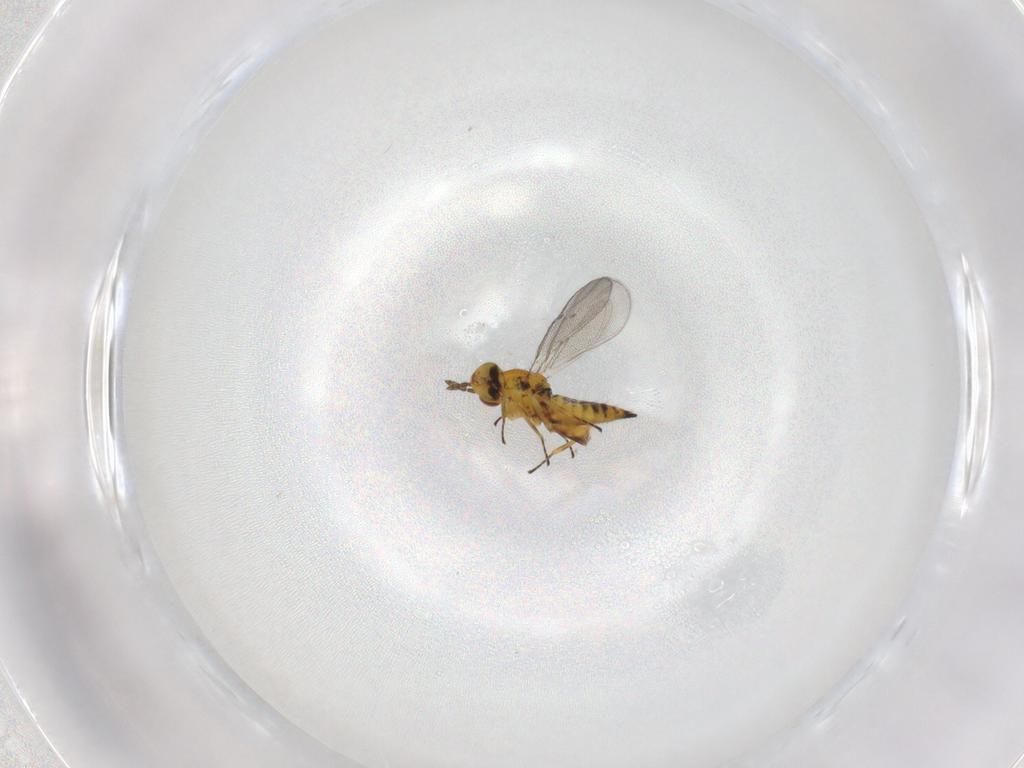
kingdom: Animalia
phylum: Arthropoda
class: Insecta
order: Hymenoptera
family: Eulophidae
